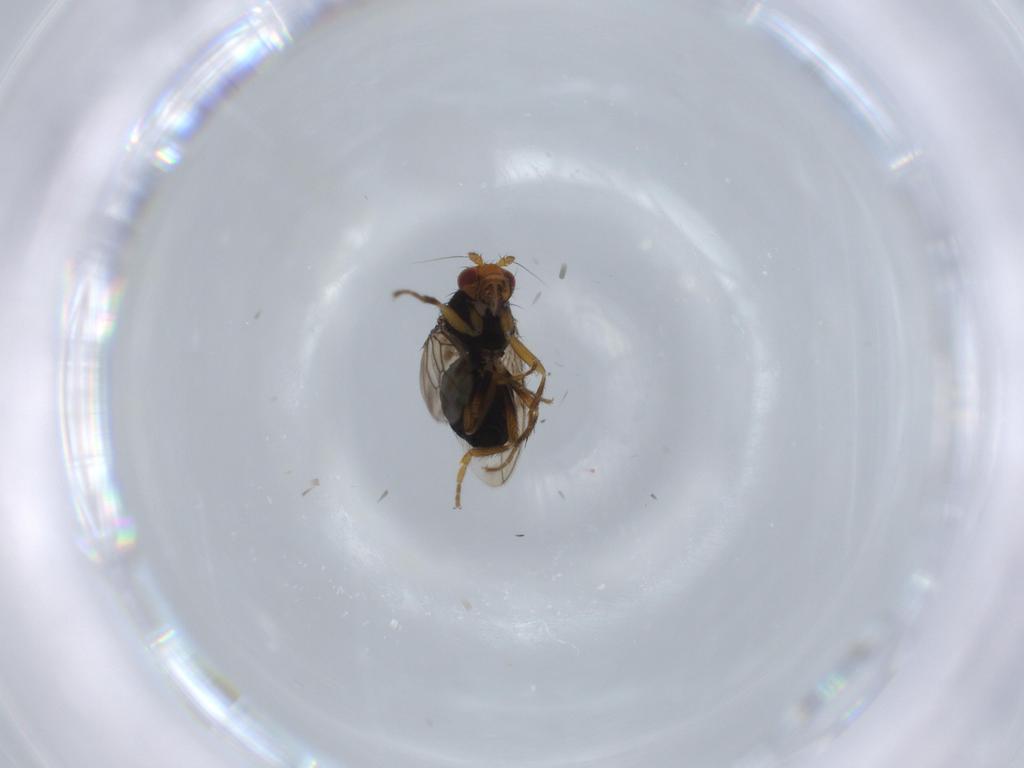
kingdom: Animalia
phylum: Arthropoda
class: Insecta
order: Diptera
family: Sphaeroceridae
